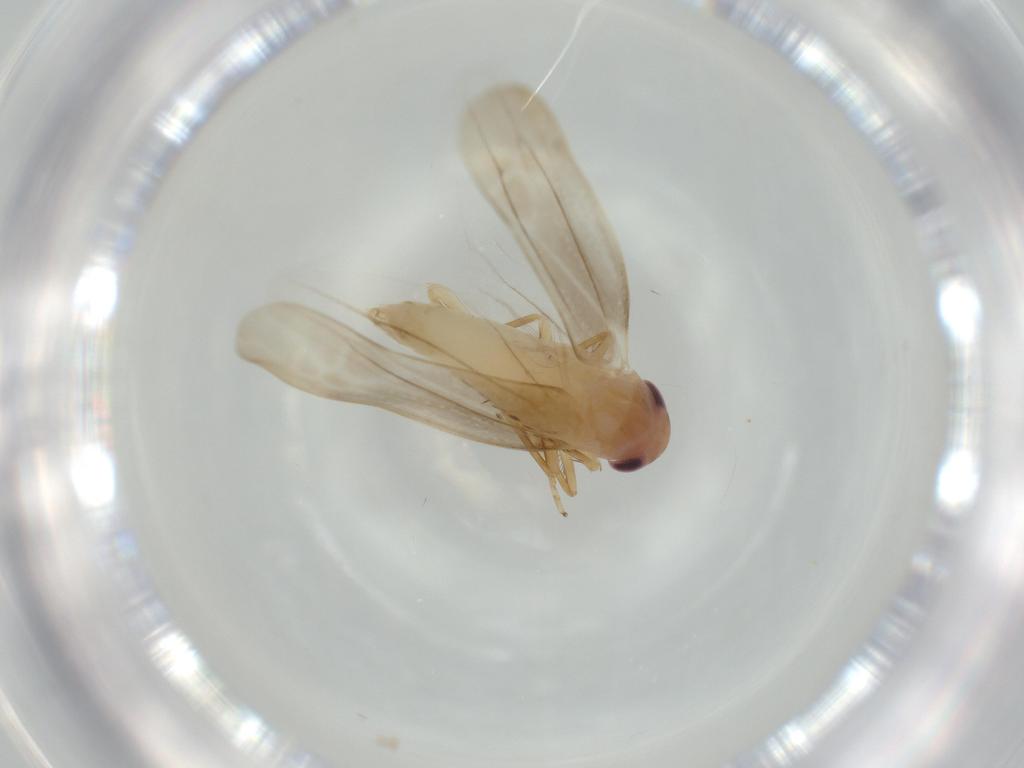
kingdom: Animalia
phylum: Arthropoda
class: Insecta
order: Hemiptera
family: Cicadellidae
